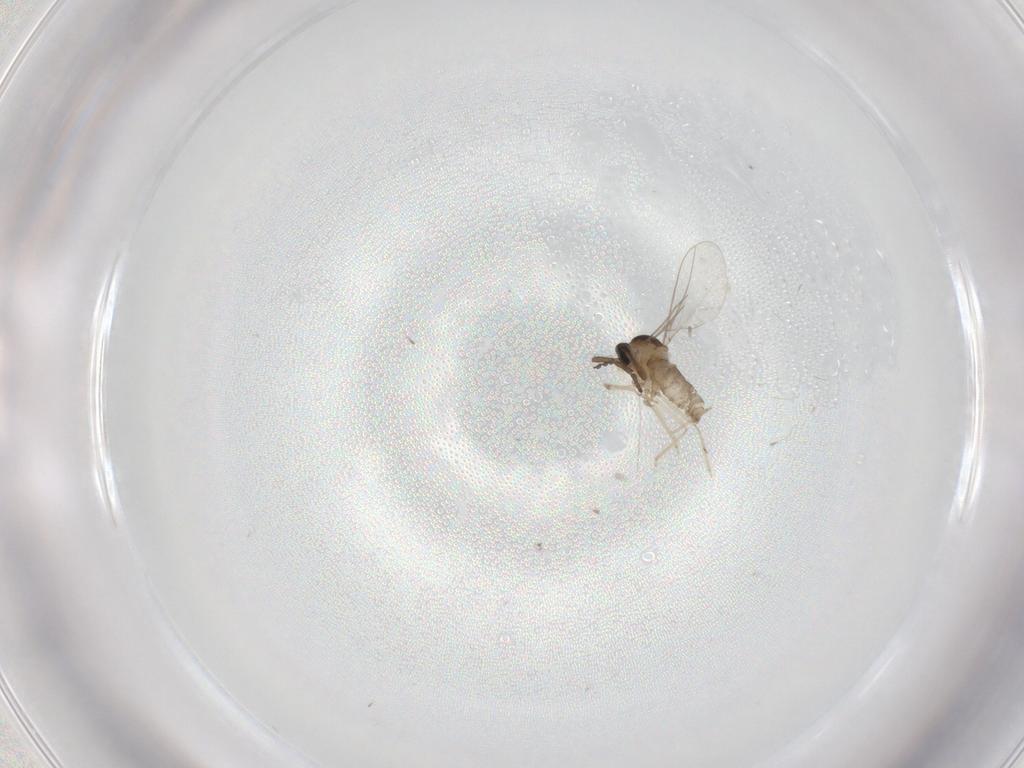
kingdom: Animalia
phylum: Arthropoda
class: Insecta
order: Diptera
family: Cecidomyiidae
